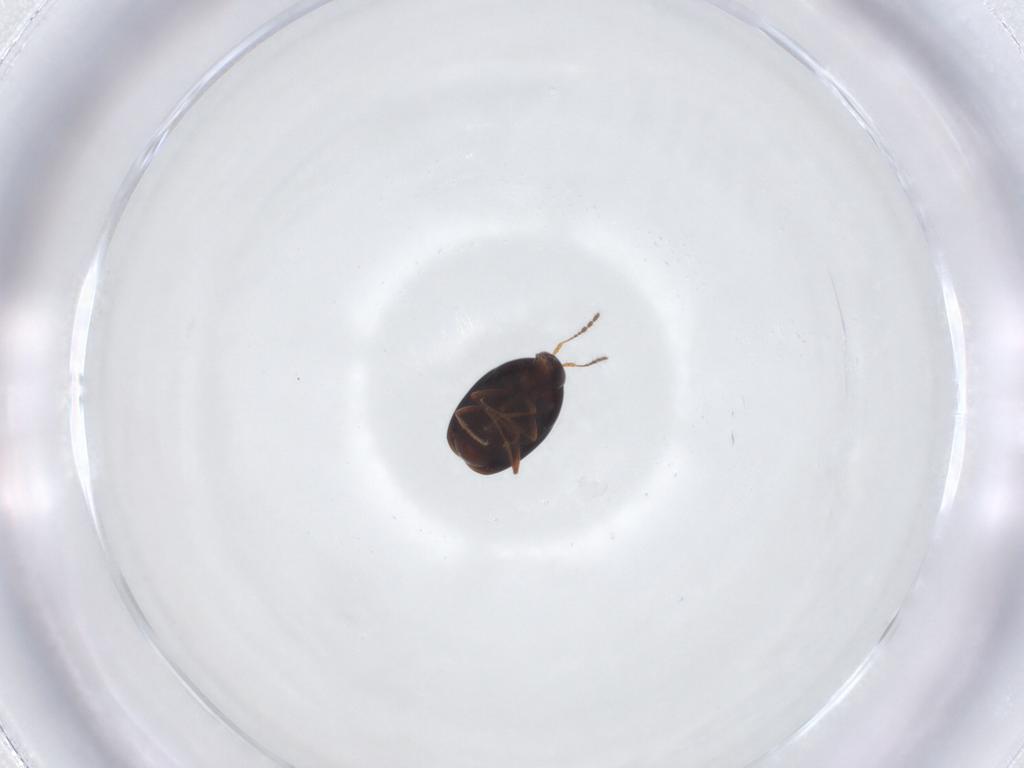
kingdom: Animalia
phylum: Arthropoda
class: Insecta
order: Coleoptera
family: Staphylinidae
